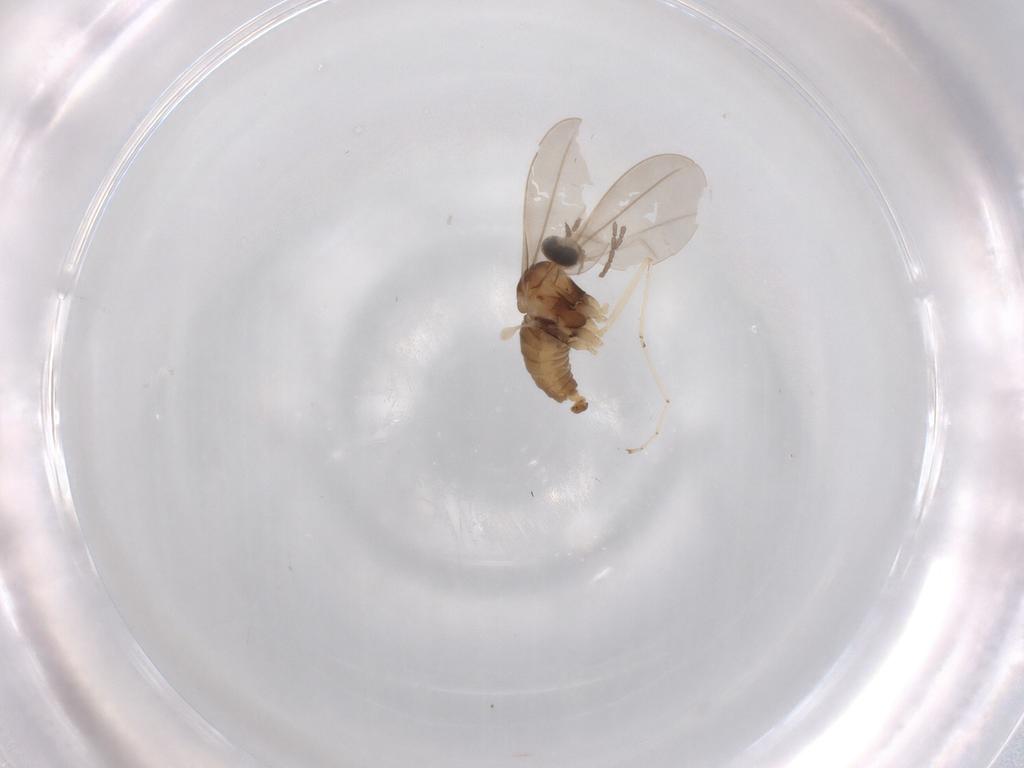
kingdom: Animalia
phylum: Arthropoda
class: Insecta
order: Diptera
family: Cecidomyiidae
